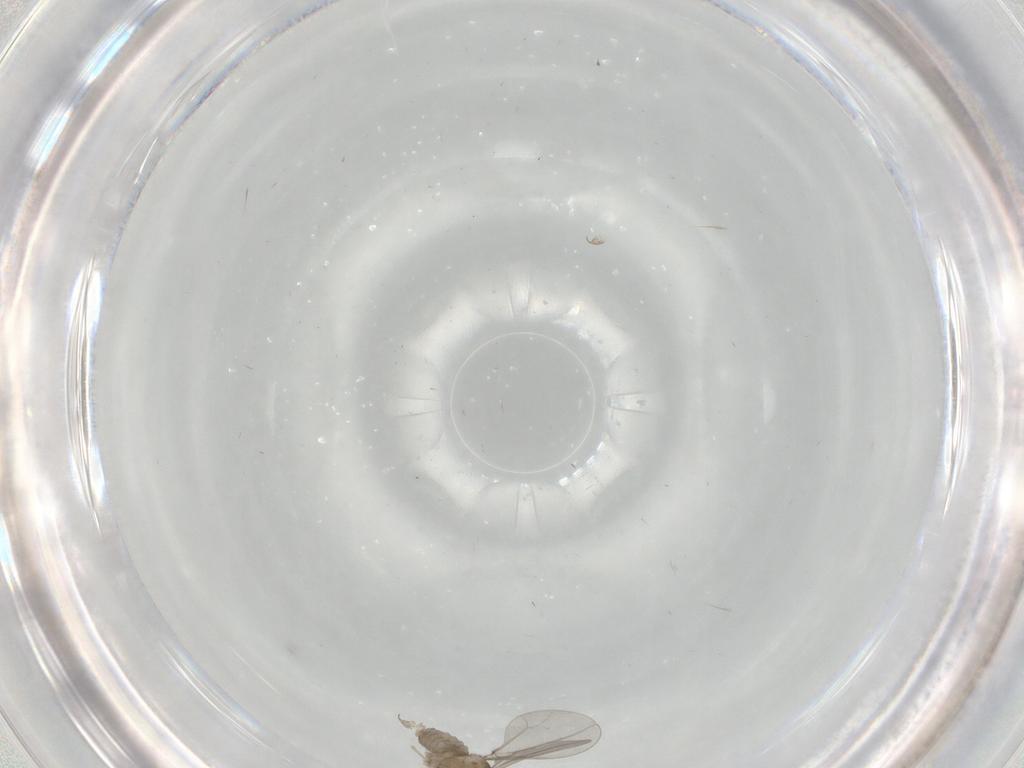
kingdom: Animalia
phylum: Arthropoda
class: Insecta
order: Diptera
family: Cecidomyiidae
